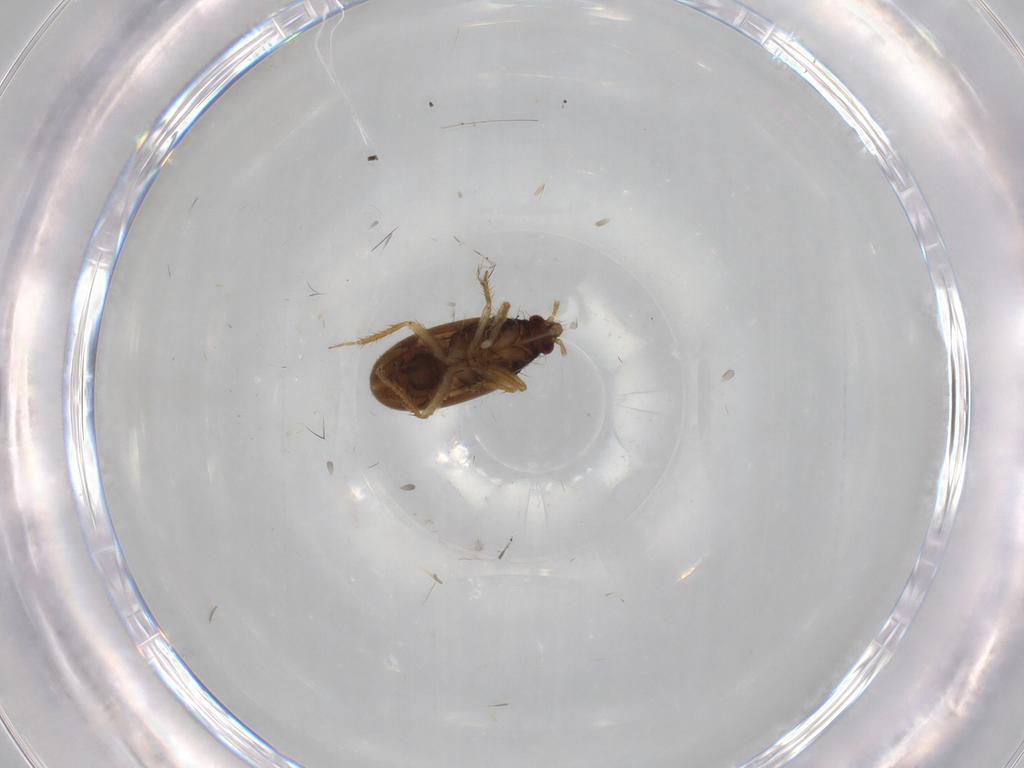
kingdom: Animalia
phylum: Arthropoda
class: Insecta
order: Hemiptera
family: Ceratocombidae
